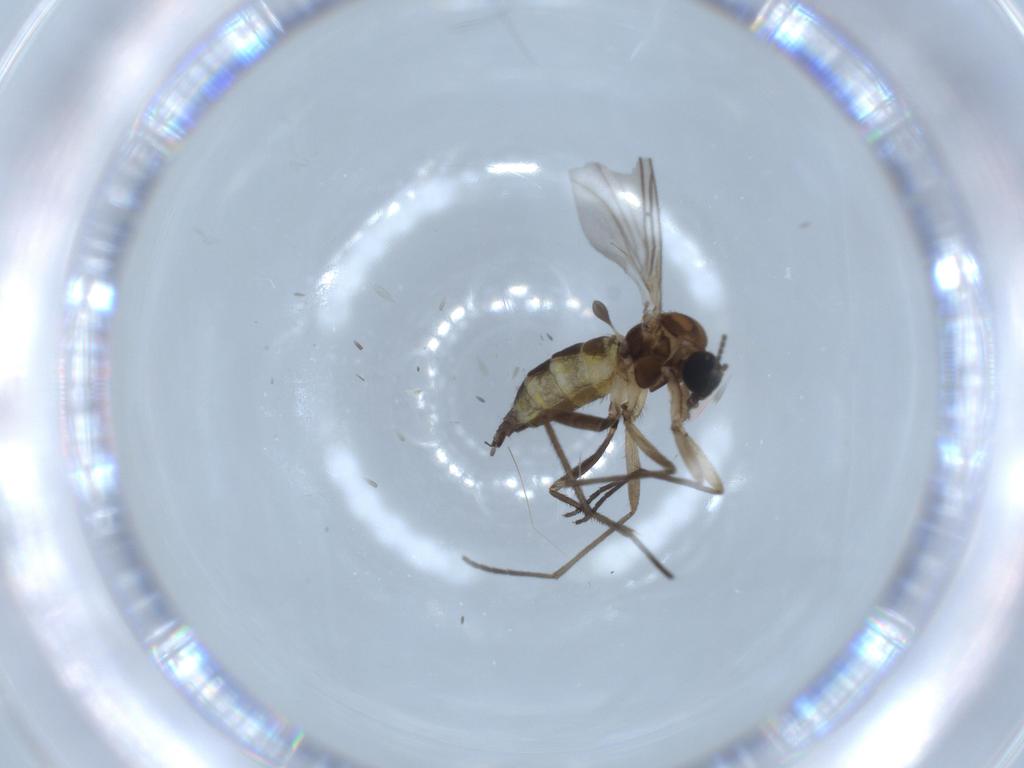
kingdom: Animalia
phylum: Arthropoda
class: Insecta
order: Diptera
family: Sciaridae
